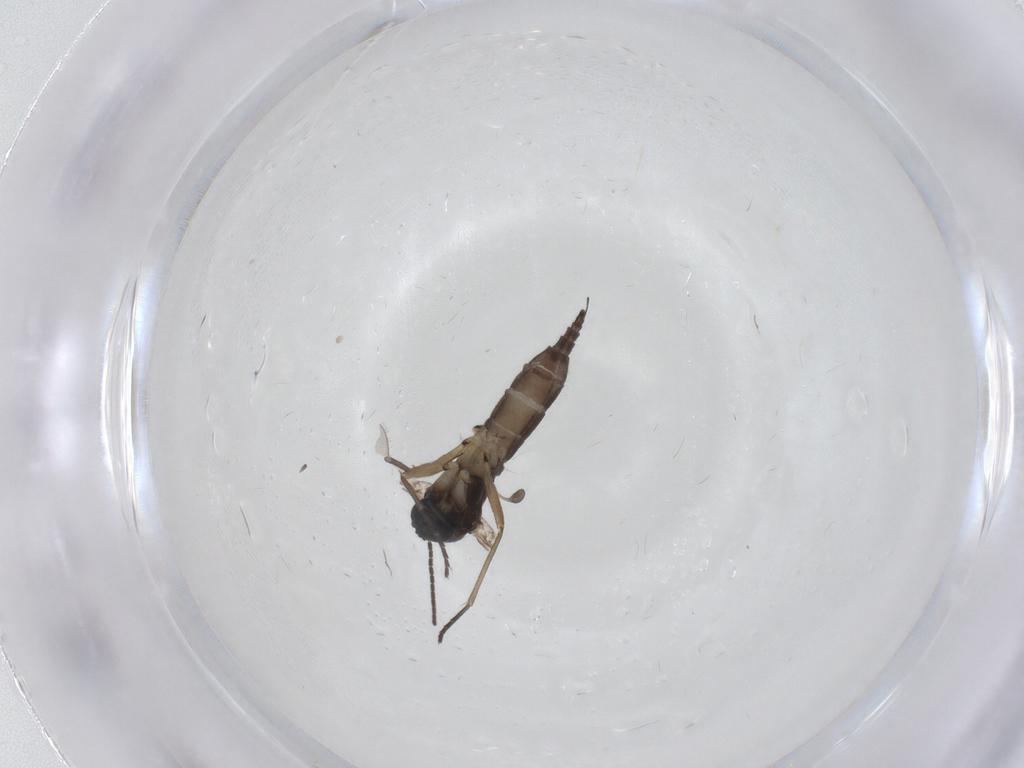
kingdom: Animalia
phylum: Arthropoda
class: Insecta
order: Diptera
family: Sciaridae
